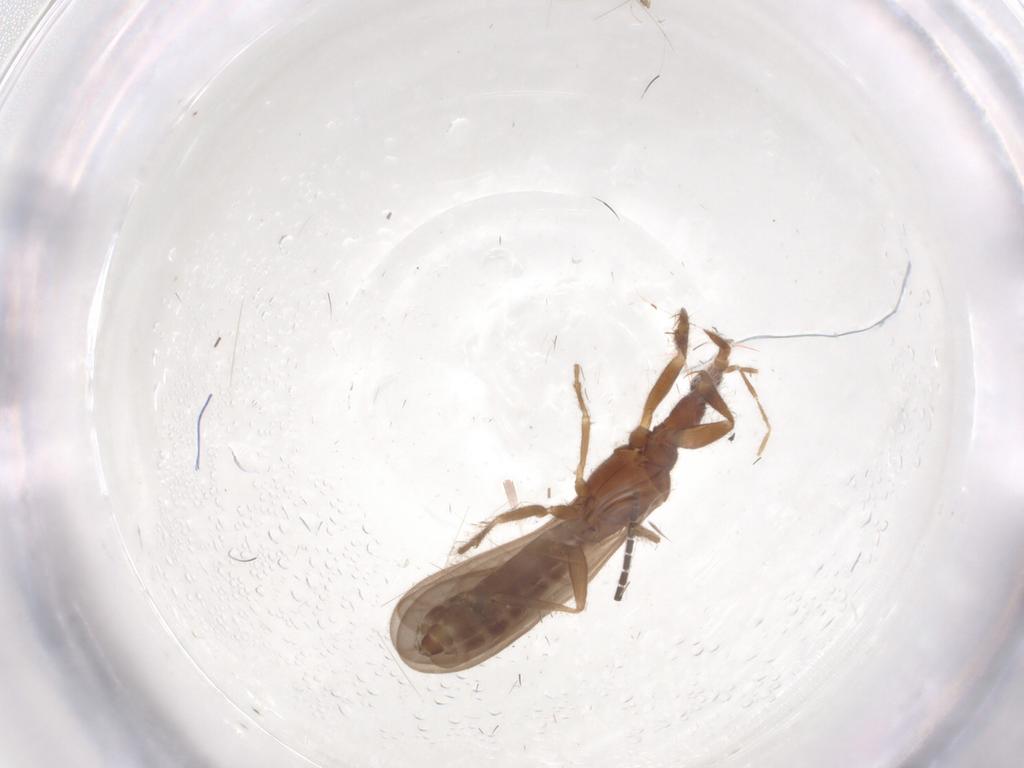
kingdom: Animalia
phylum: Arthropoda
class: Insecta
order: Hemiptera
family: Enicocephalidae
